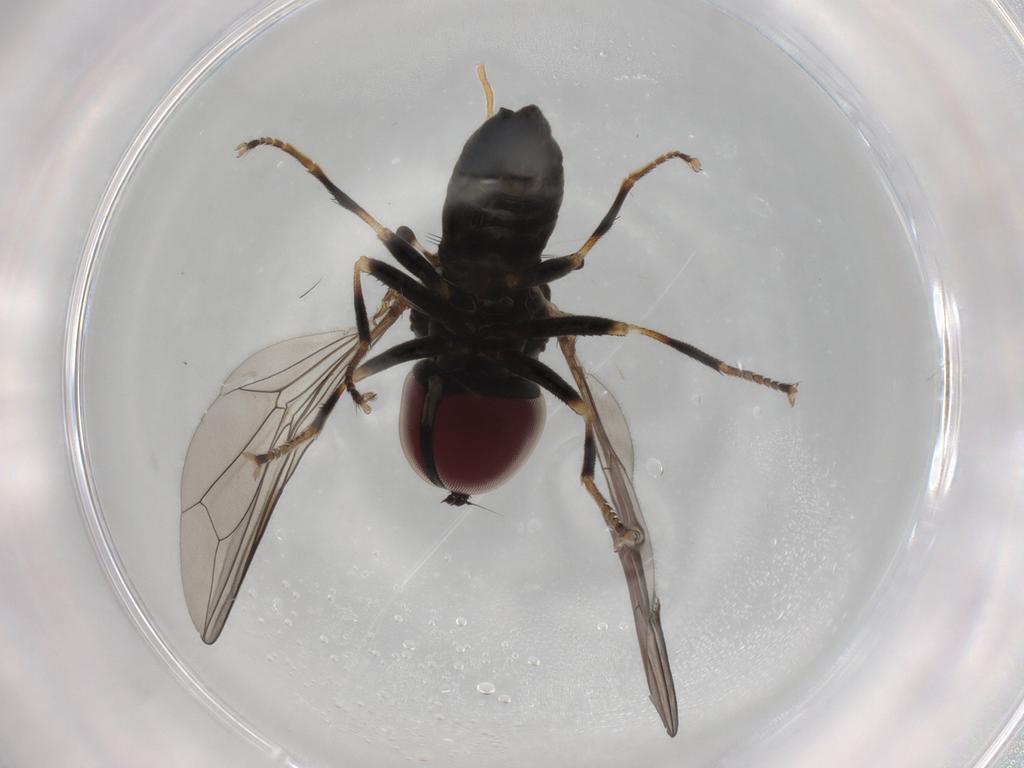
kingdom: Animalia
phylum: Arthropoda
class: Insecta
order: Diptera
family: Pipunculidae
